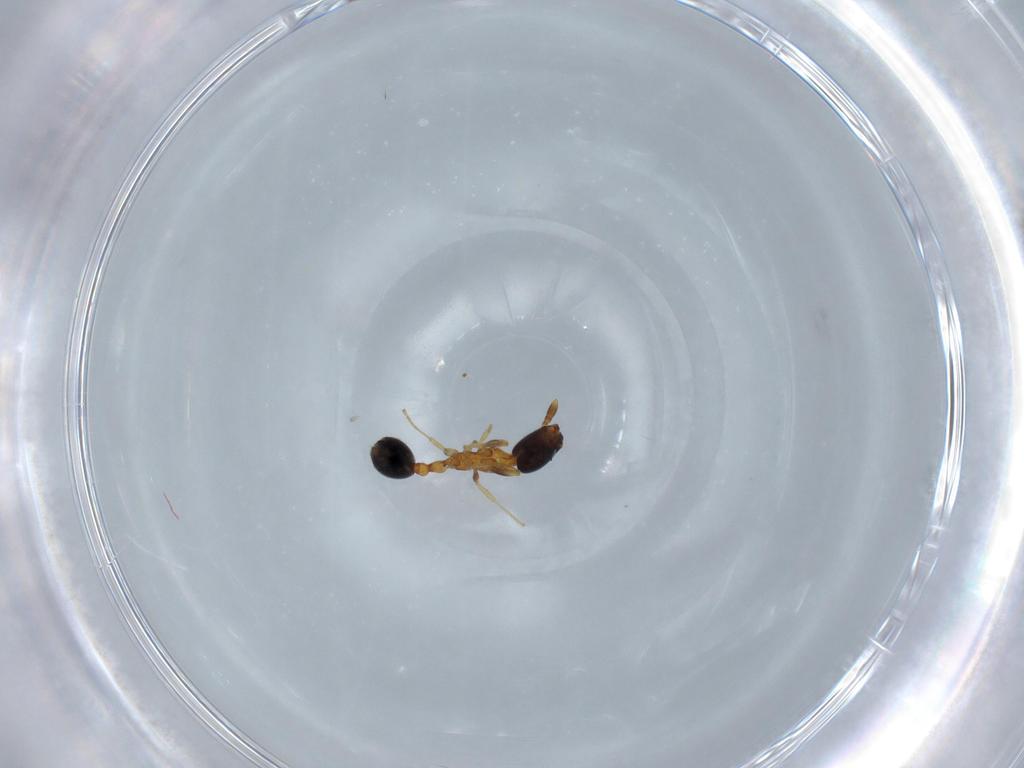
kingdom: Animalia
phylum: Arthropoda
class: Insecta
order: Hymenoptera
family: Formicidae
